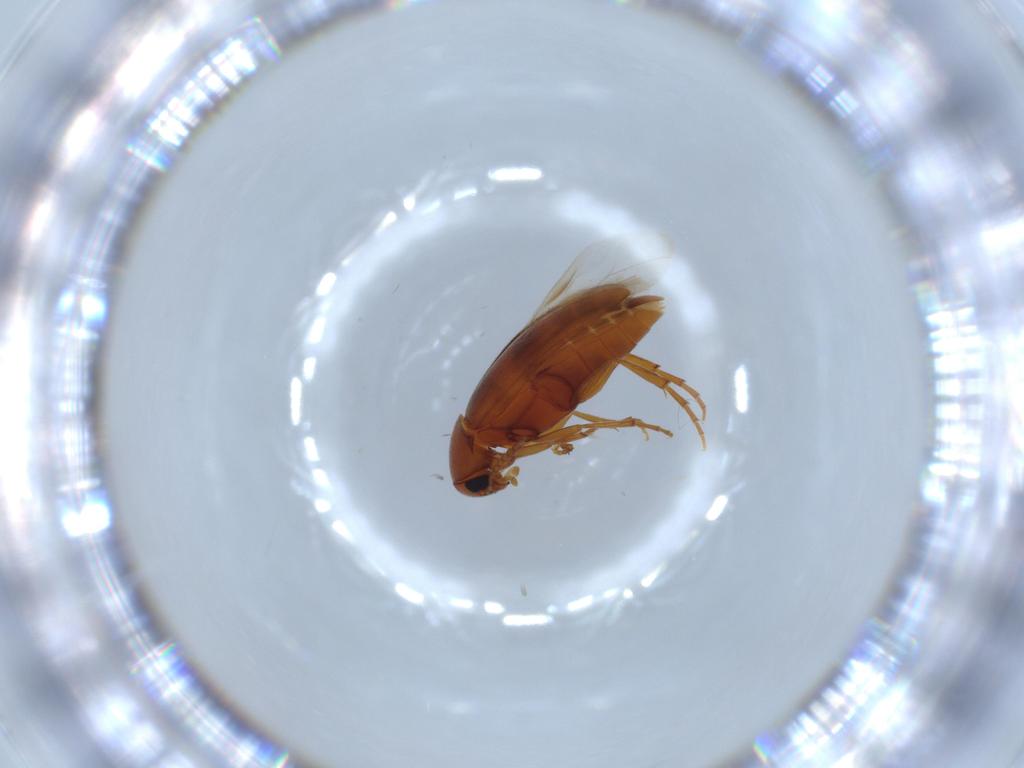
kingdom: Animalia
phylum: Arthropoda
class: Insecta
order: Coleoptera
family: Scraptiidae
